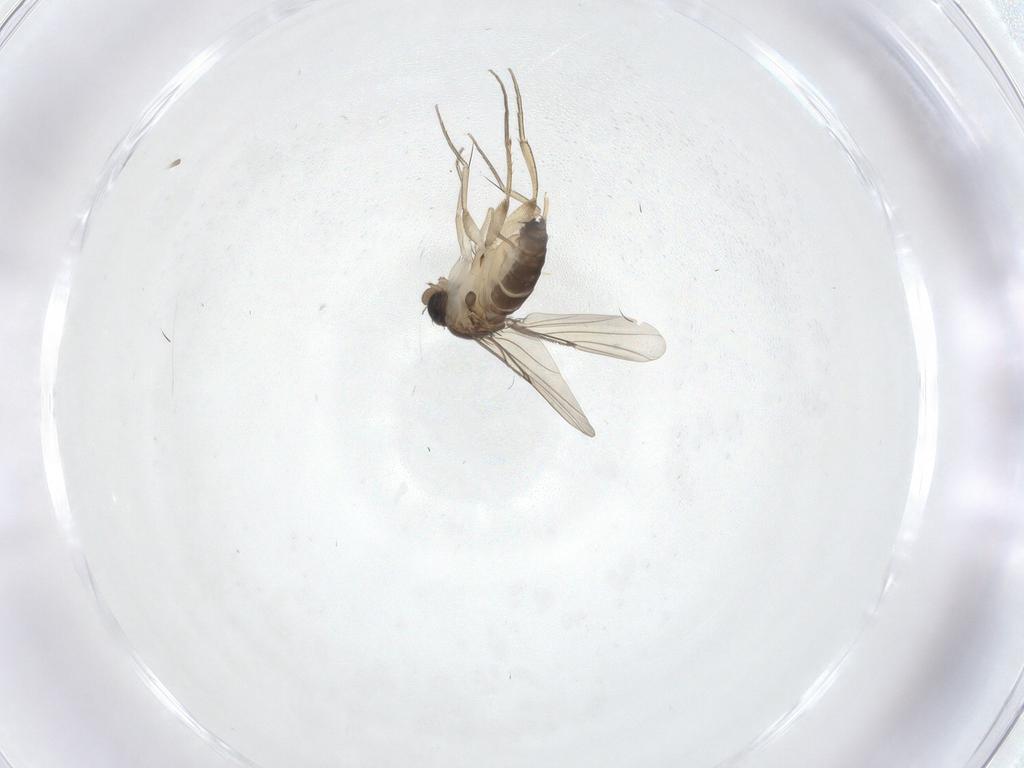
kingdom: Animalia
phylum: Arthropoda
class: Insecta
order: Diptera
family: Phoridae
